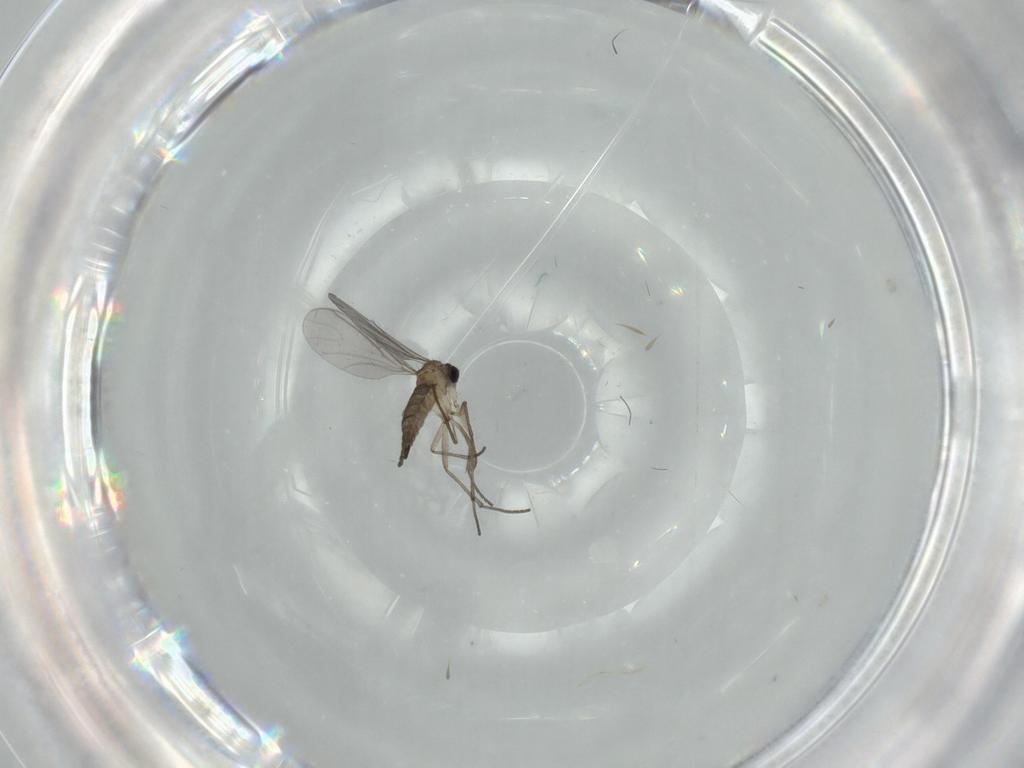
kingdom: Animalia
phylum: Arthropoda
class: Insecta
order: Diptera
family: Sciaridae
